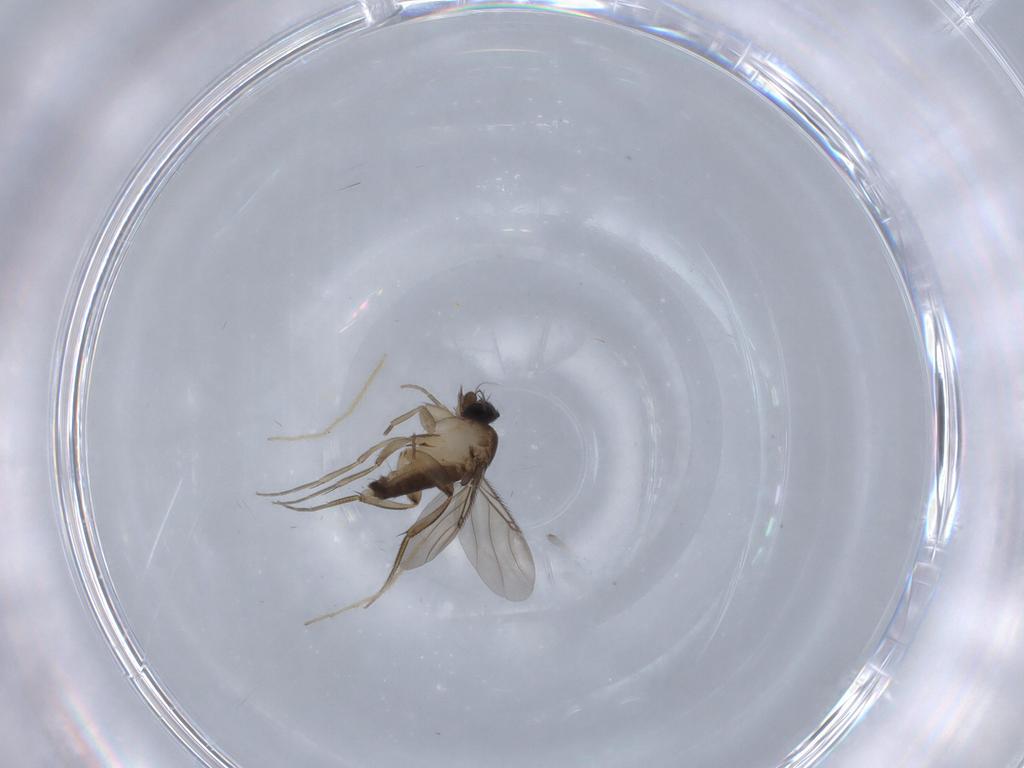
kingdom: Animalia
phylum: Arthropoda
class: Insecta
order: Diptera
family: Phoridae
